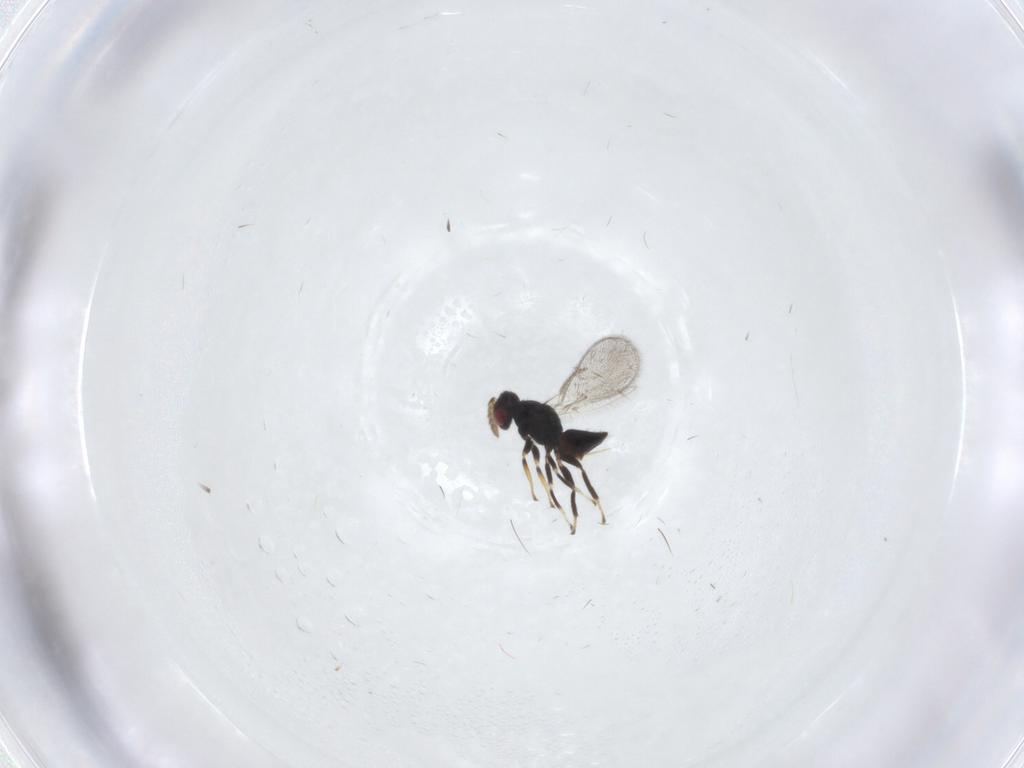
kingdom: Animalia
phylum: Arthropoda
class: Insecta
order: Hymenoptera
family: Eulophidae
